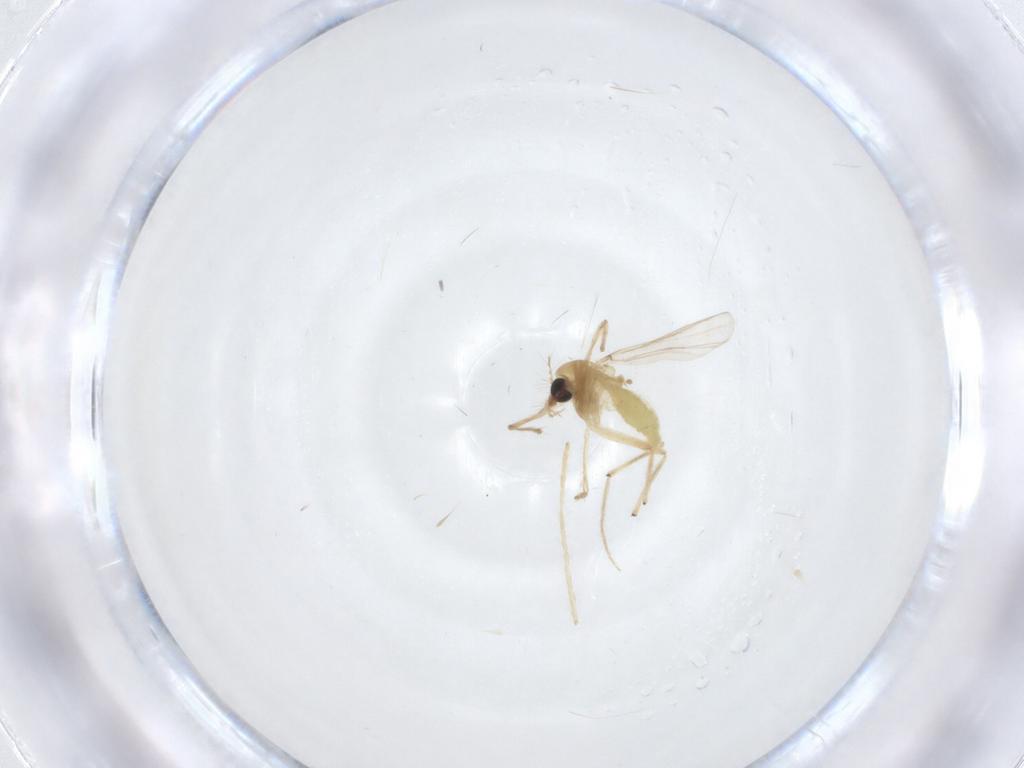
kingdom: Animalia
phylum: Arthropoda
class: Insecta
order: Diptera
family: Chironomidae
